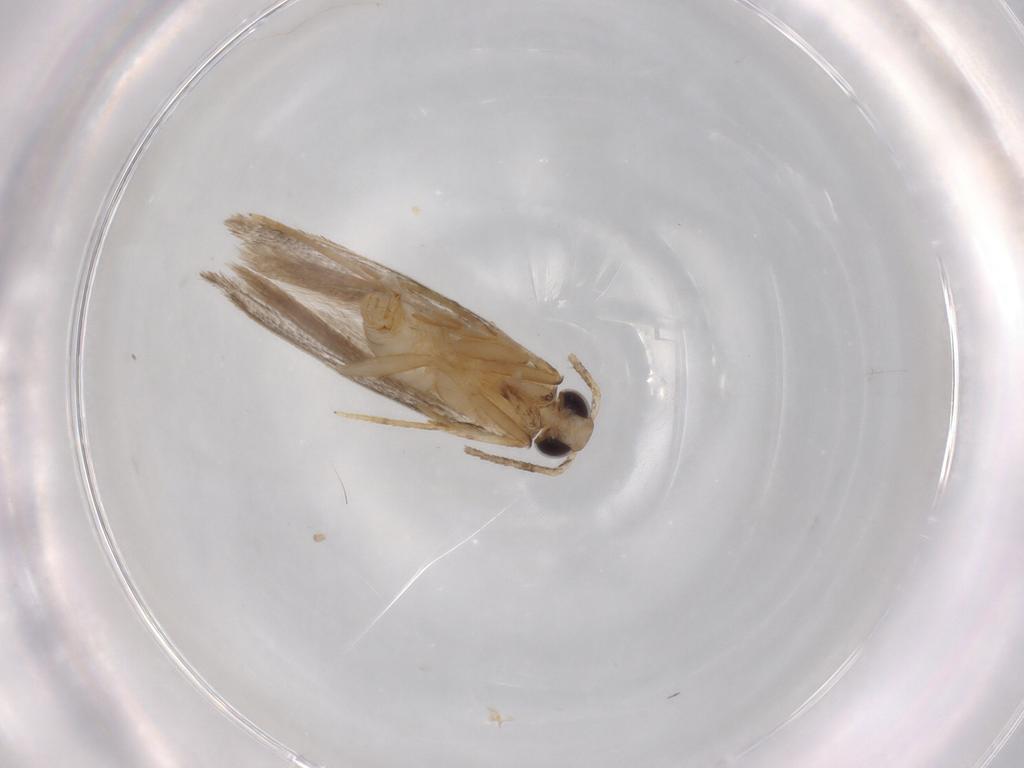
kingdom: Animalia
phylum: Arthropoda
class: Insecta
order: Lepidoptera
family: Autostichidae
